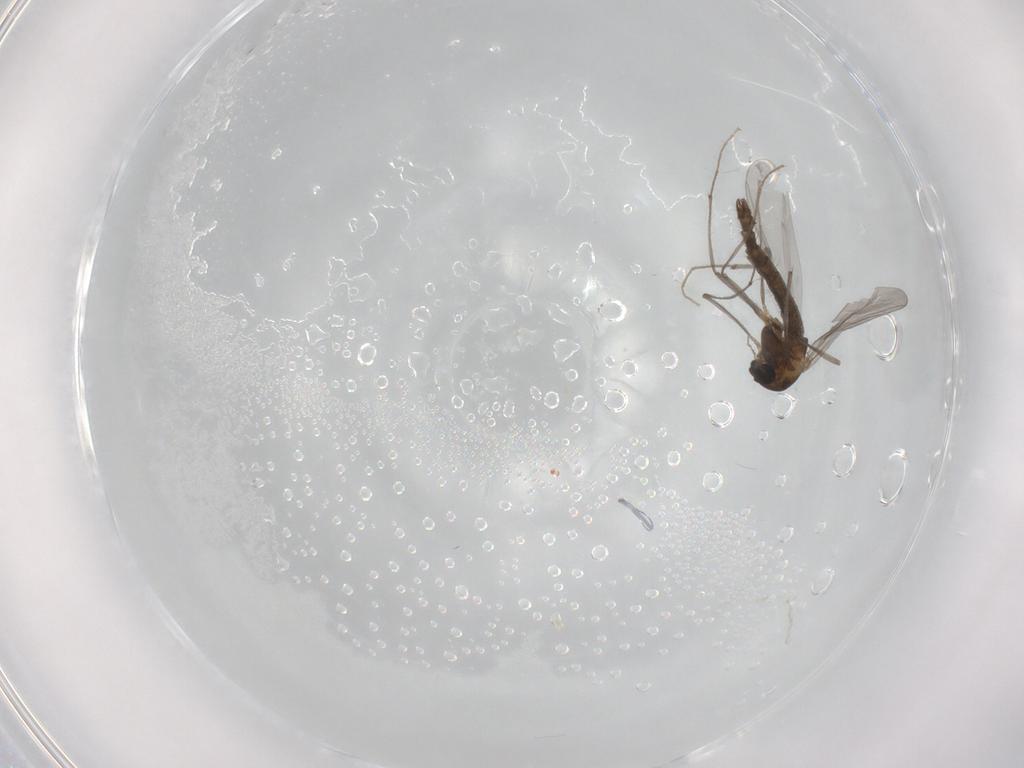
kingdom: Animalia
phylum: Arthropoda
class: Insecta
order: Diptera
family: Chironomidae
